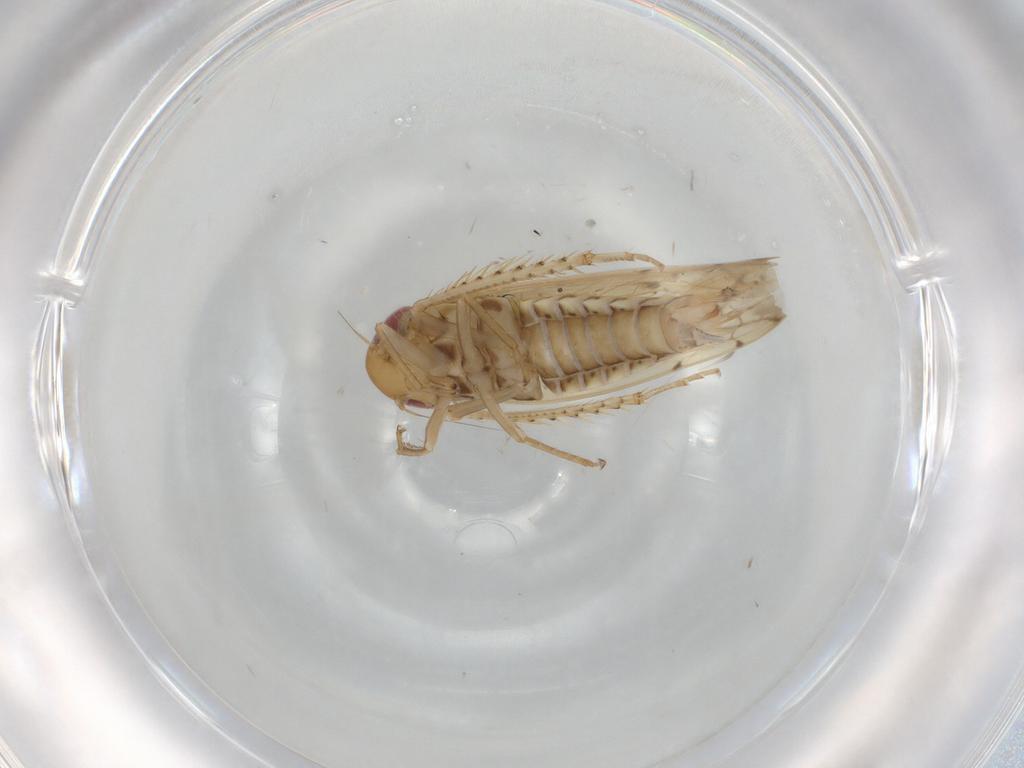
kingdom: Animalia
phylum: Arthropoda
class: Insecta
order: Hemiptera
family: Cicadellidae
